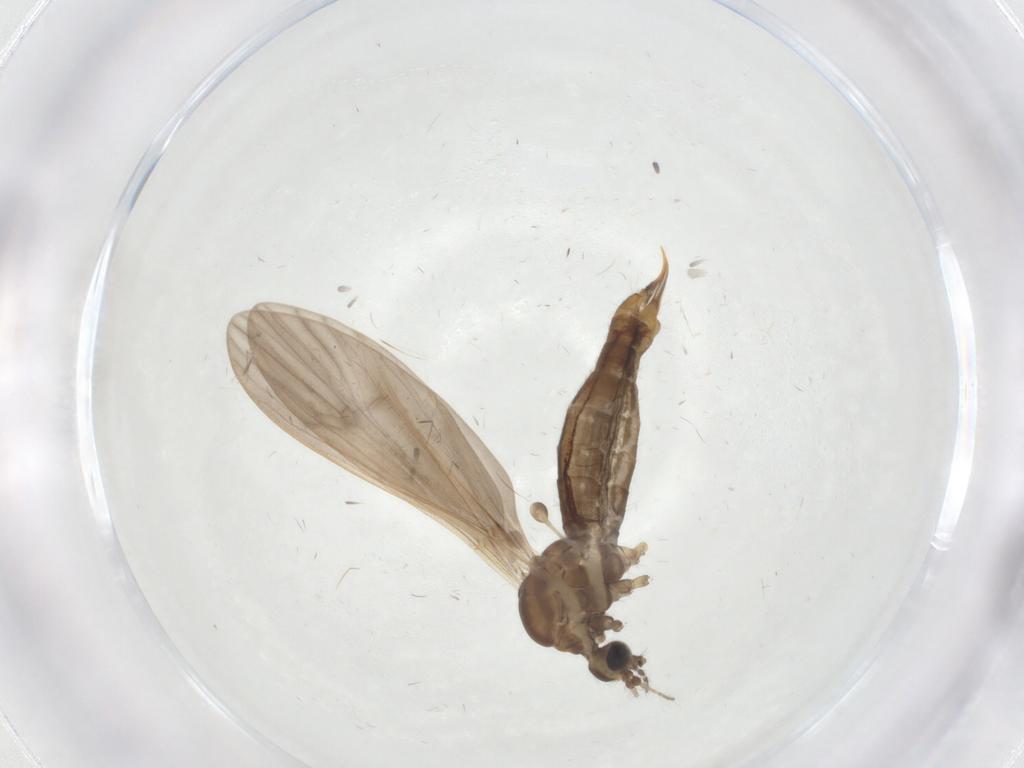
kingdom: Animalia
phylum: Arthropoda
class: Insecta
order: Diptera
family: Limoniidae
